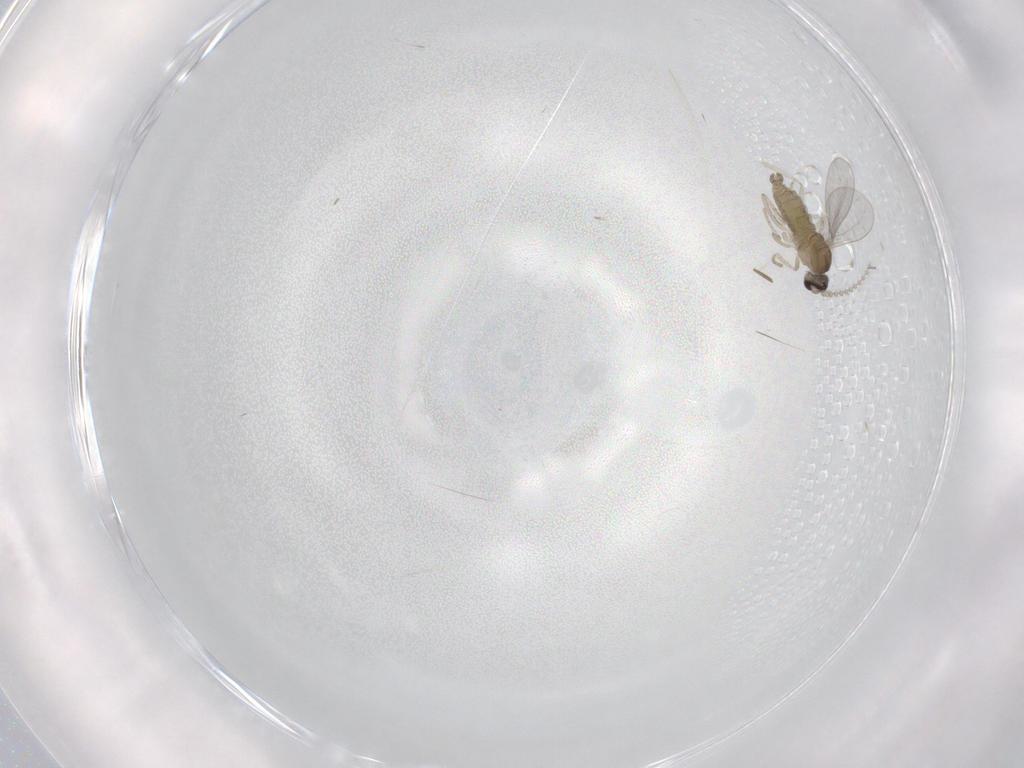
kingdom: Animalia
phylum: Arthropoda
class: Insecta
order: Diptera
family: Cecidomyiidae
